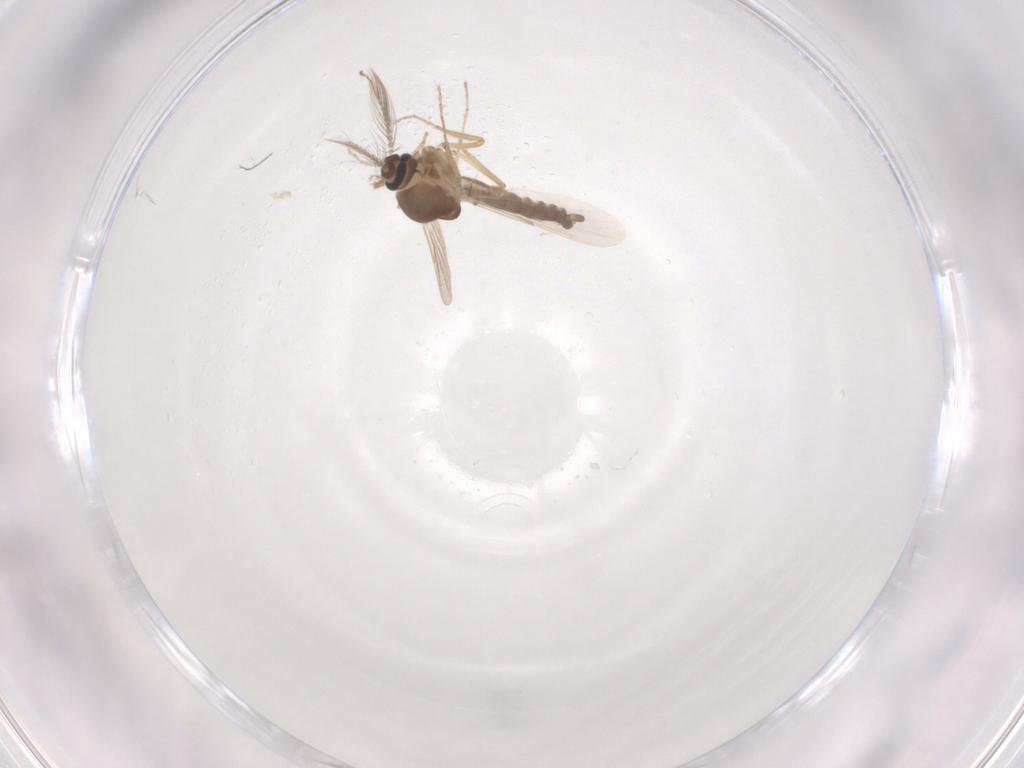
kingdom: Animalia
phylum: Arthropoda
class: Insecta
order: Diptera
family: Ceratopogonidae
